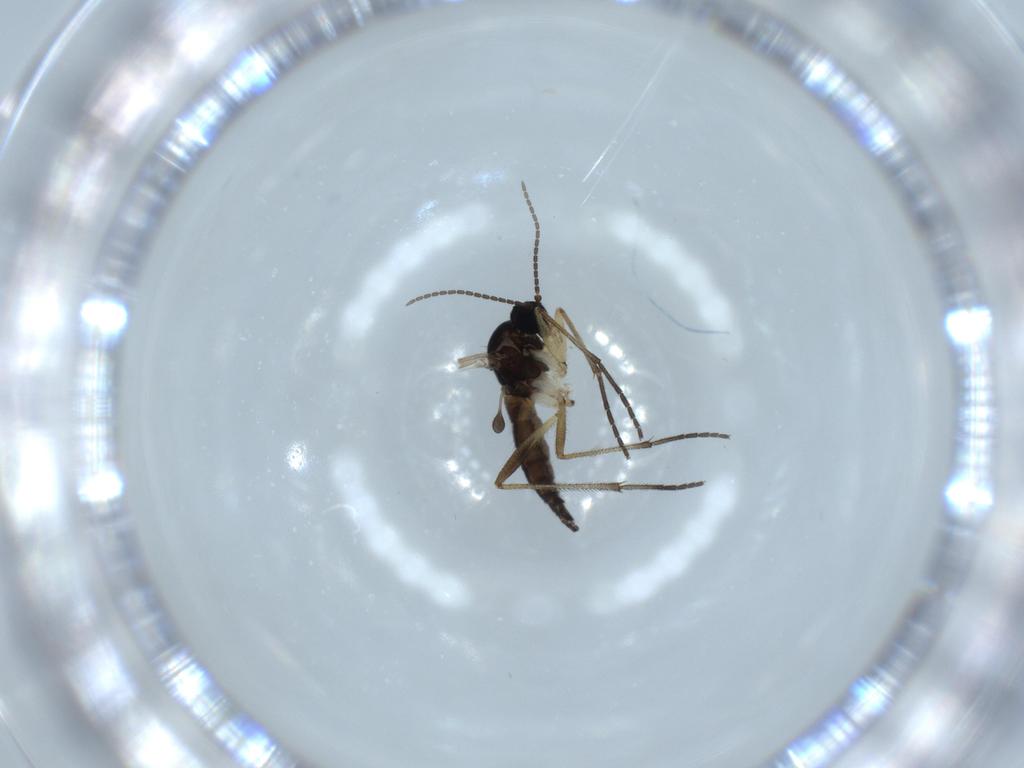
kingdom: Animalia
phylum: Arthropoda
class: Insecta
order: Diptera
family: Sciaridae
